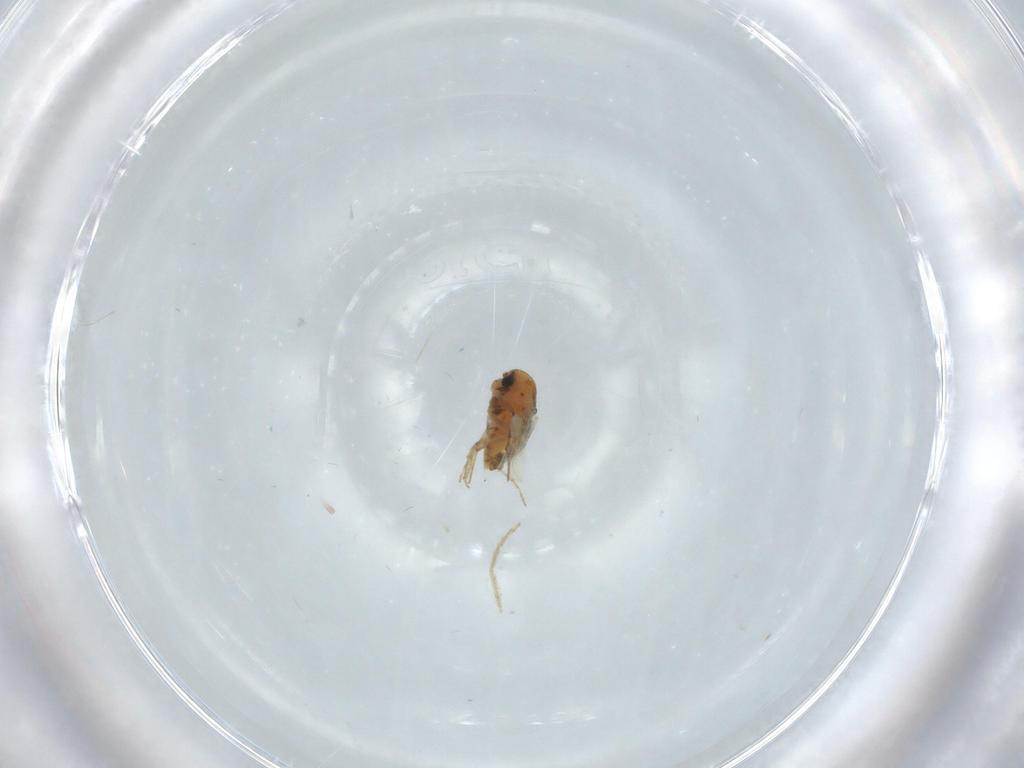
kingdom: Animalia
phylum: Arthropoda
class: Insecta
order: Diptera
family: Chironomidae
